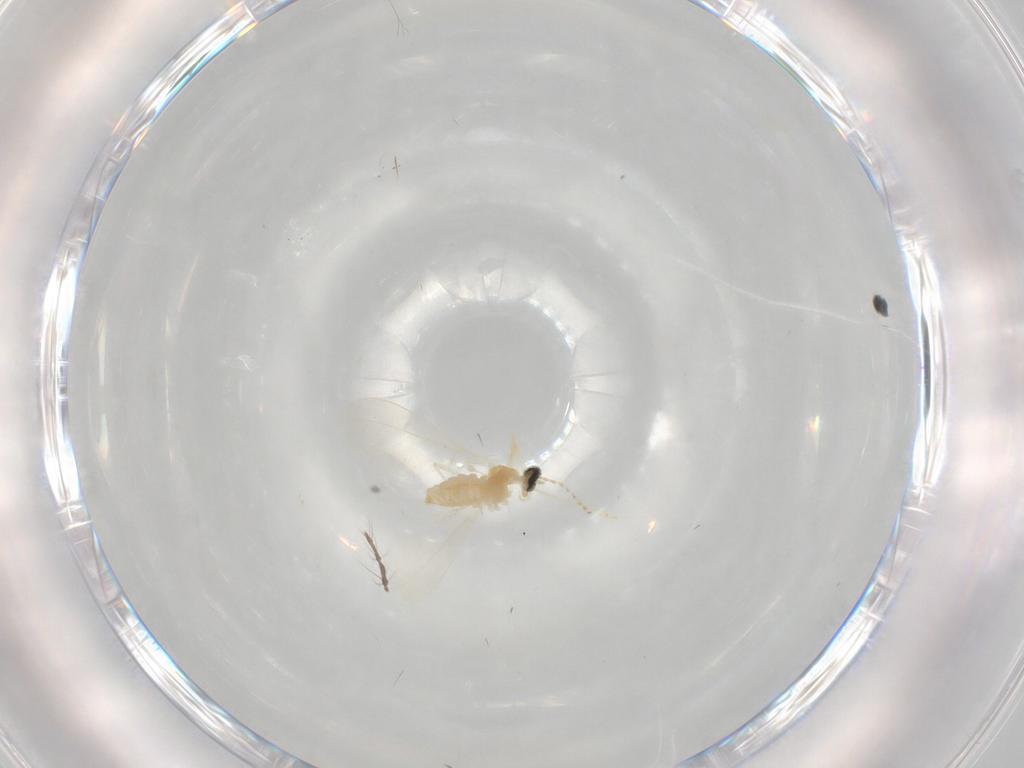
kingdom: Animalia
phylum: Arthropoda
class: Insecta
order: Diptera
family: Cecidomyiidae
